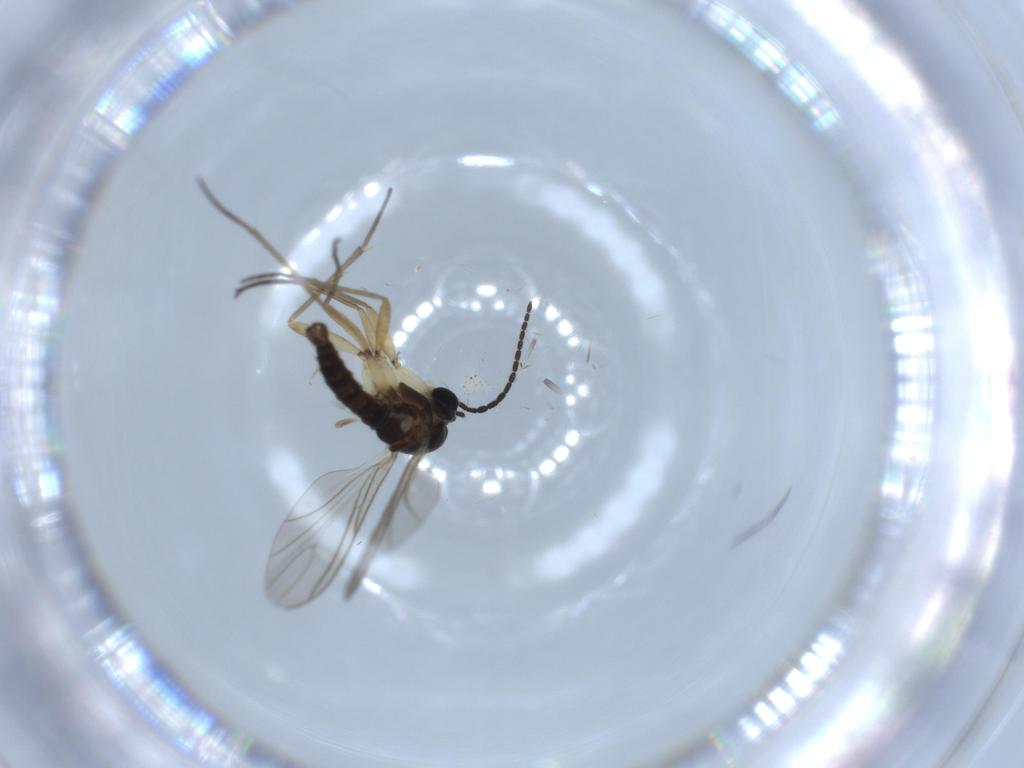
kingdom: Animalia
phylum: Arthropoda
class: Insecta
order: Diptera
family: Sciaridae
